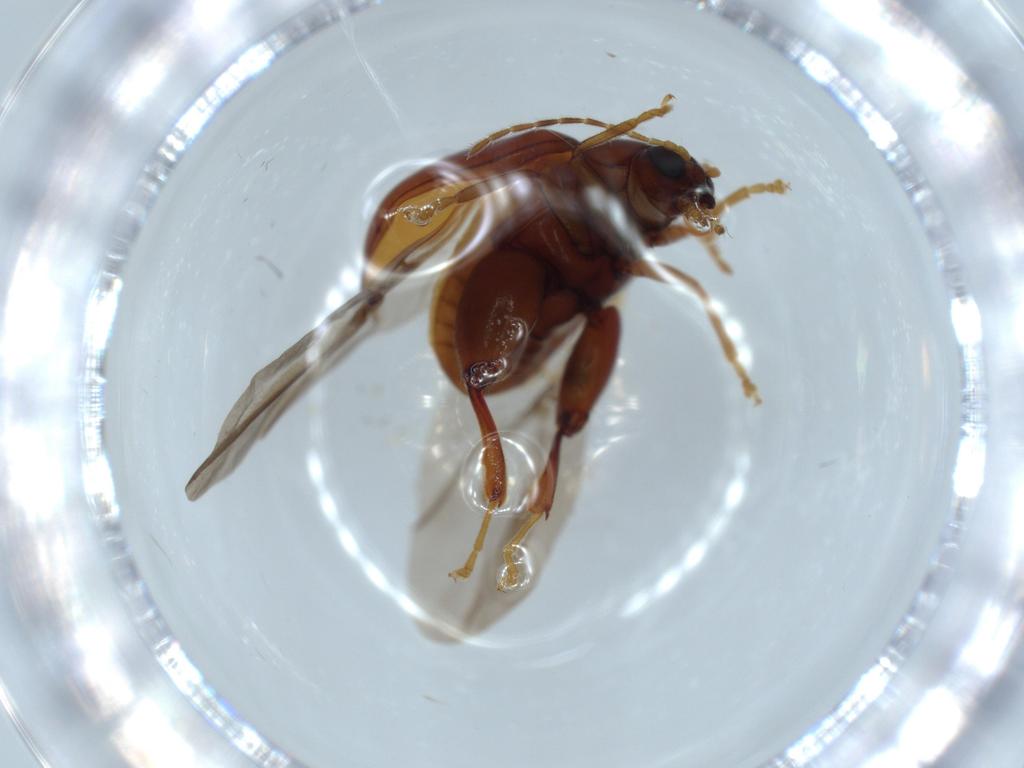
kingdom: Animalia
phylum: Arthropoda
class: Insecta
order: Coleoptera
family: Chrysomelidae
